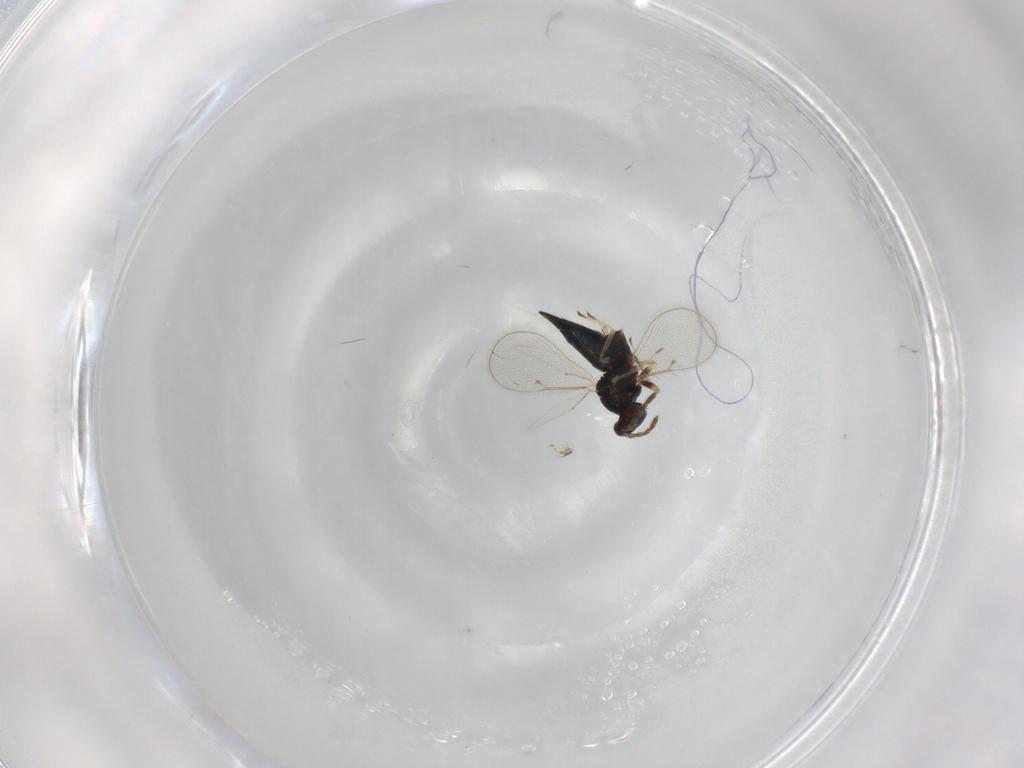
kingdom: Animalia
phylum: Arthropoda
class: Insecta
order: Hymenoptera
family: Eulophidae
